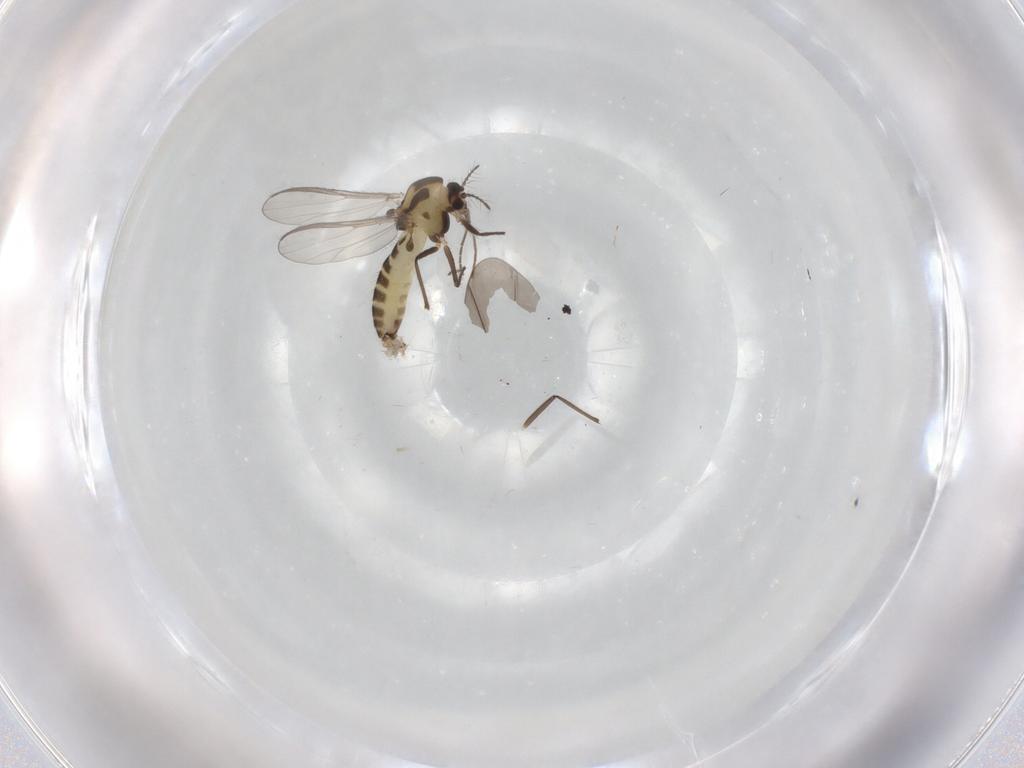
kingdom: Animalia
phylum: Arthropoda
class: Insecta
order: Diptera
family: Chironomidae
